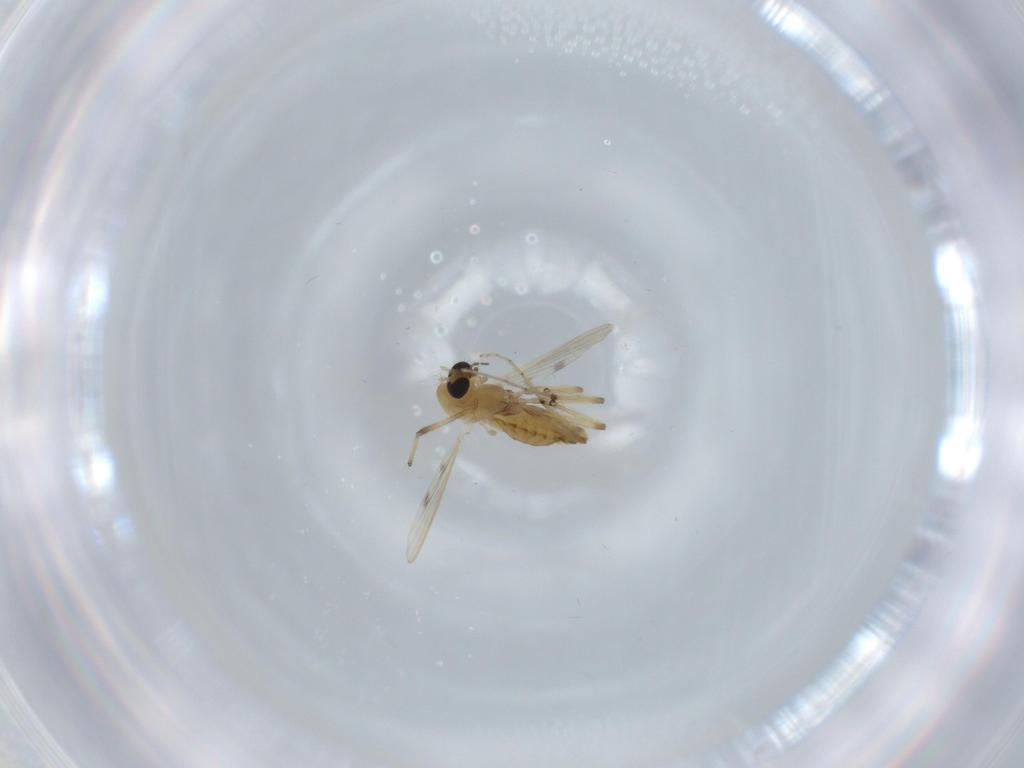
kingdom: Animalia
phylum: Arthropoda
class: Insecta
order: Diptera
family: Chironomidae
